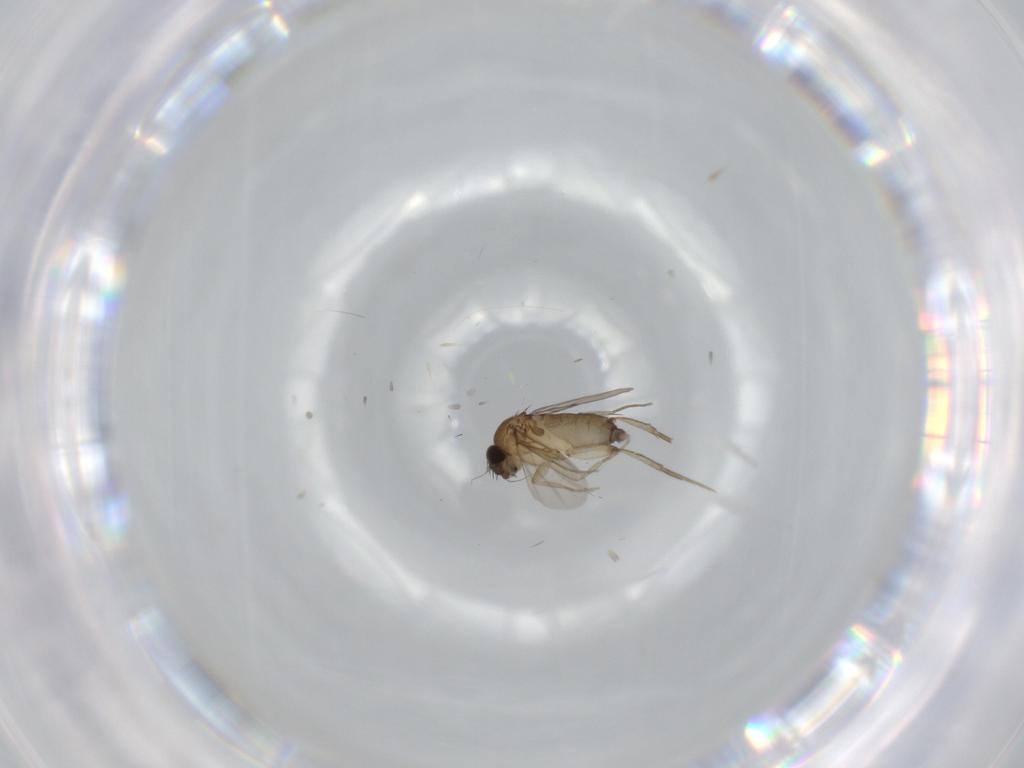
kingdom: Animalia
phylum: Arthropoda
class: Insecta
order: Diptera
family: Phoridae
